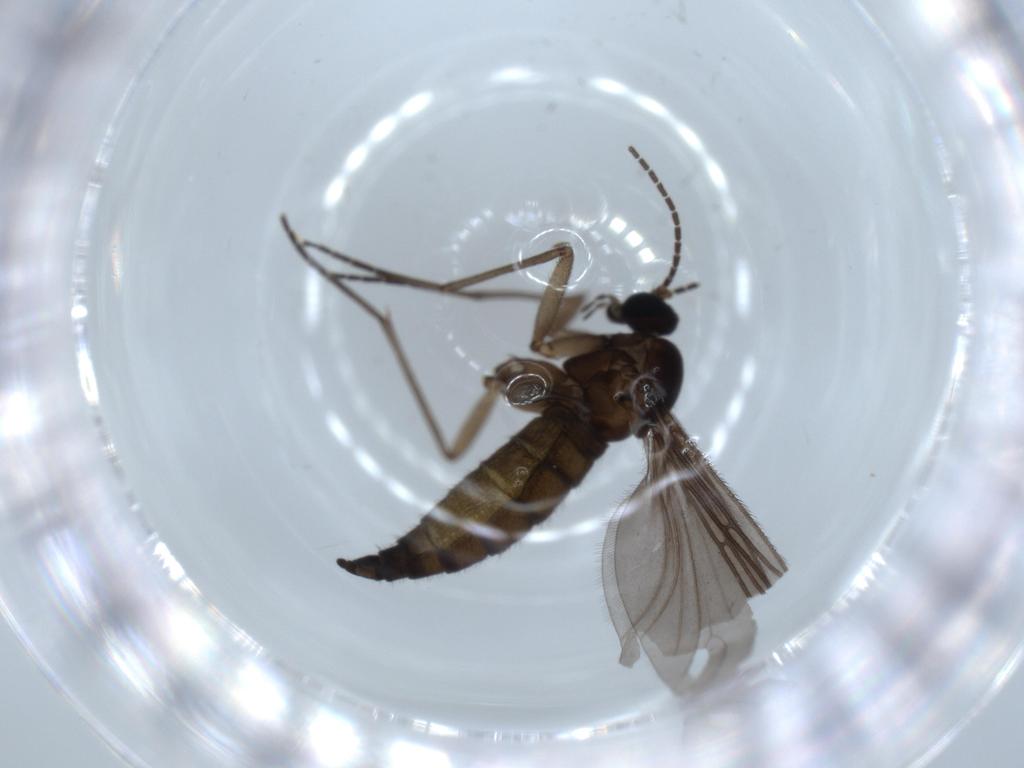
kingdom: Animalia
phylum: Arthropoda
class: Insecta
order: Diptera
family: Sciaridae
